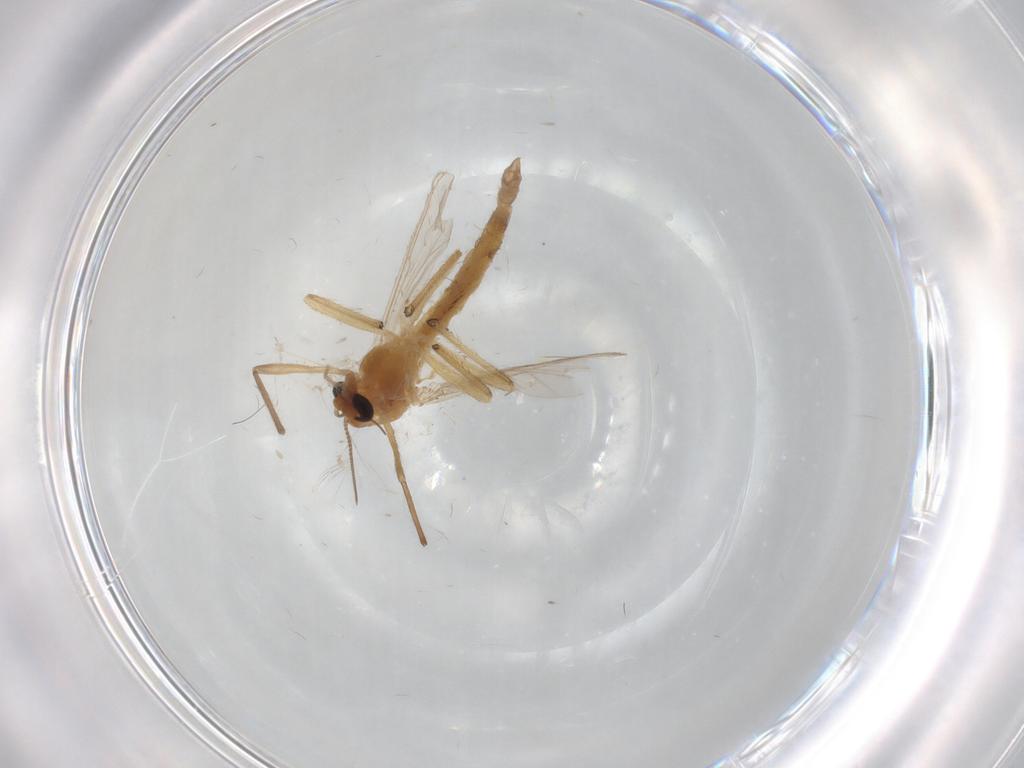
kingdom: Animalia
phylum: Arthropoda
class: Insecta
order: Diptera
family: Chironomidae
